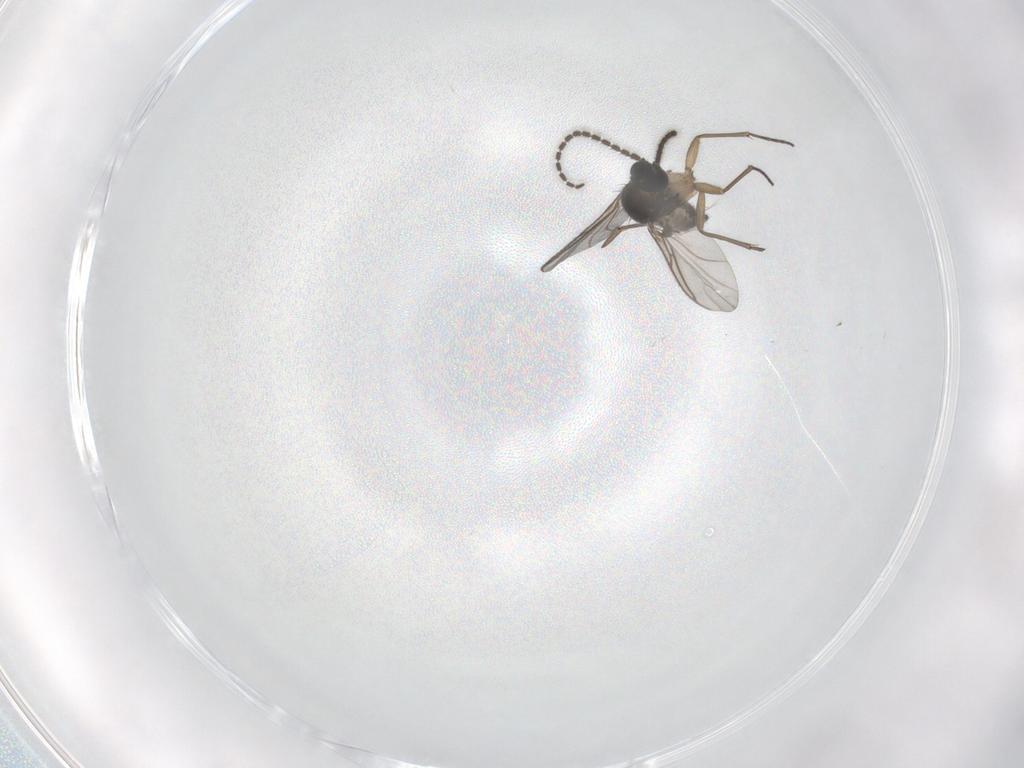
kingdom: Animalia
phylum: Arthropoda
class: Insecta
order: Diptera
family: Sciaridae
